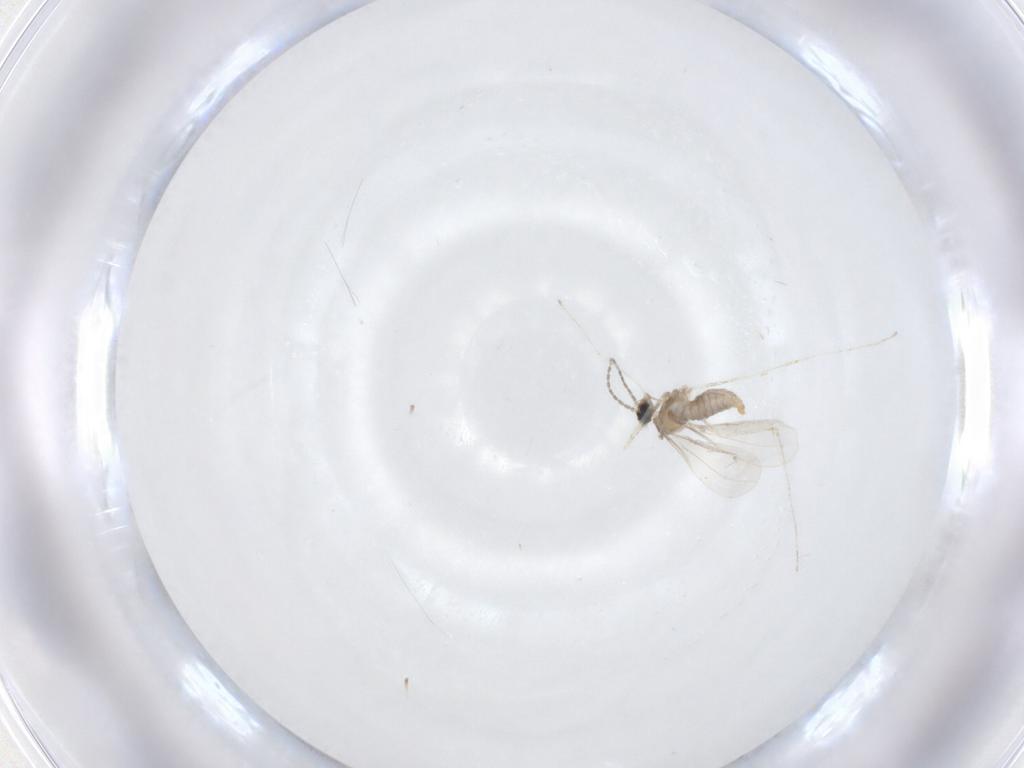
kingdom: Animalia
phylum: Arthropoda
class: Insecta
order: Diptera
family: Cecidomyiidae
